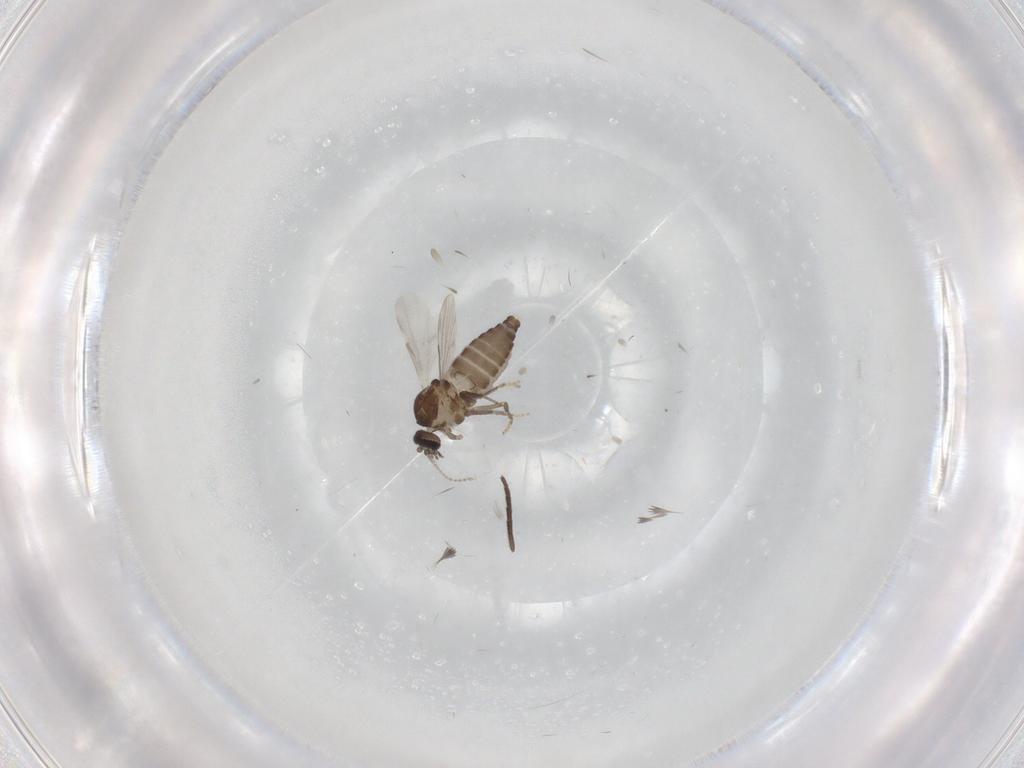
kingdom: Animalia
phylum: Arthropoda
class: Insecta
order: Diptera
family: Ceratopogonidae
